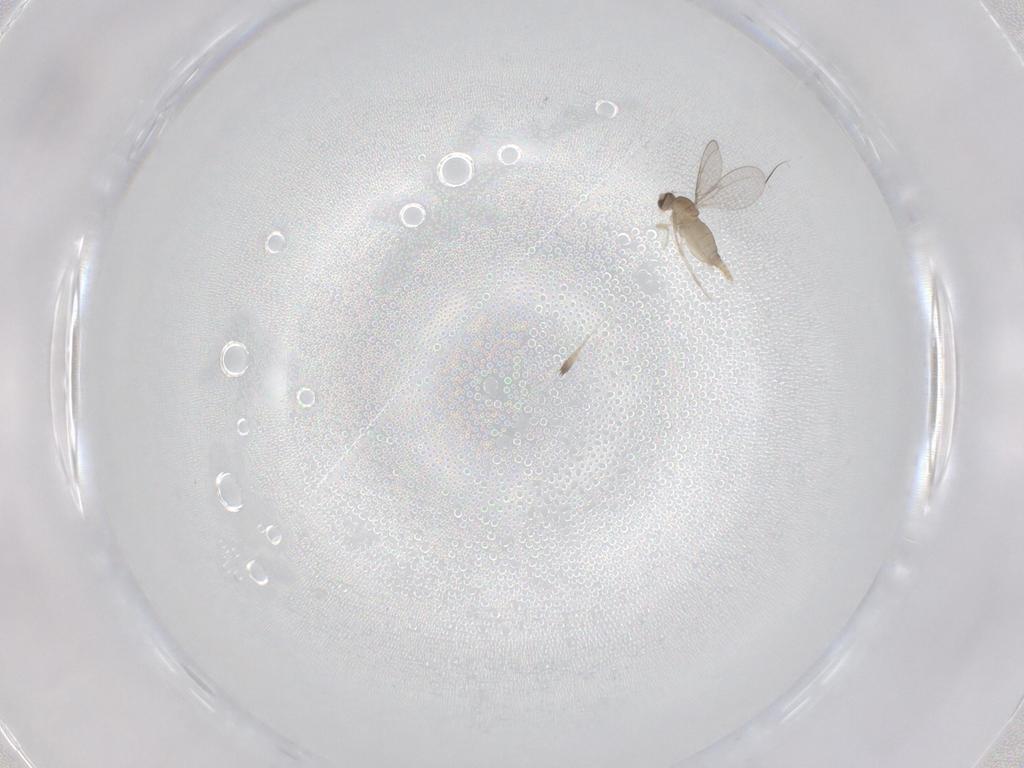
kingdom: Animalia
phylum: Arthropoda
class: Insecta
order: Diptera
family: Cecidomyiidae
